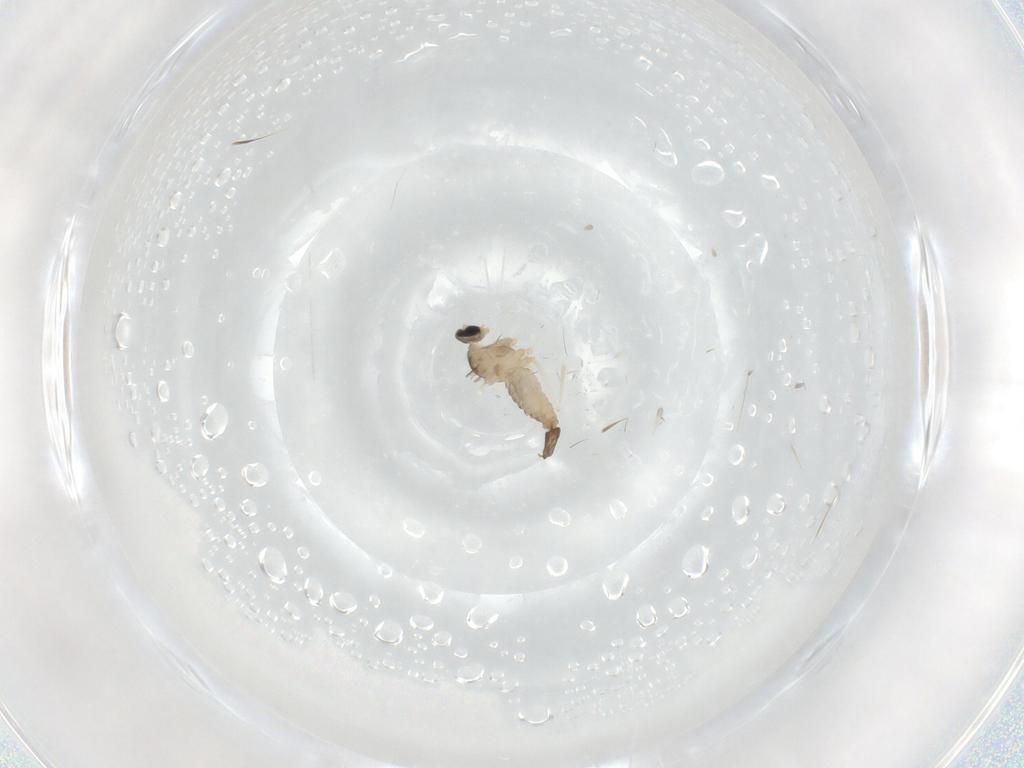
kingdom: Animalia
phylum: Arthropoda
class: Insecta
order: Diptera
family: Cecidomyiidae
